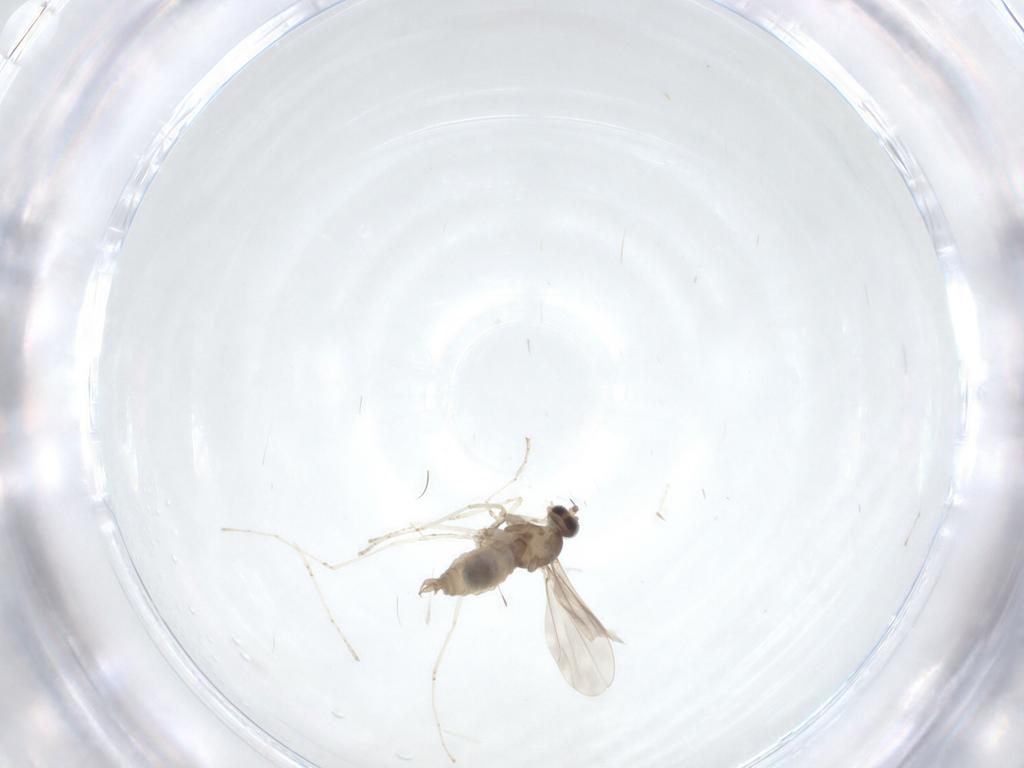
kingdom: Animalia
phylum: Arthropoda
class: Insecta
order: Diptera
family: Cecidomyiidae
